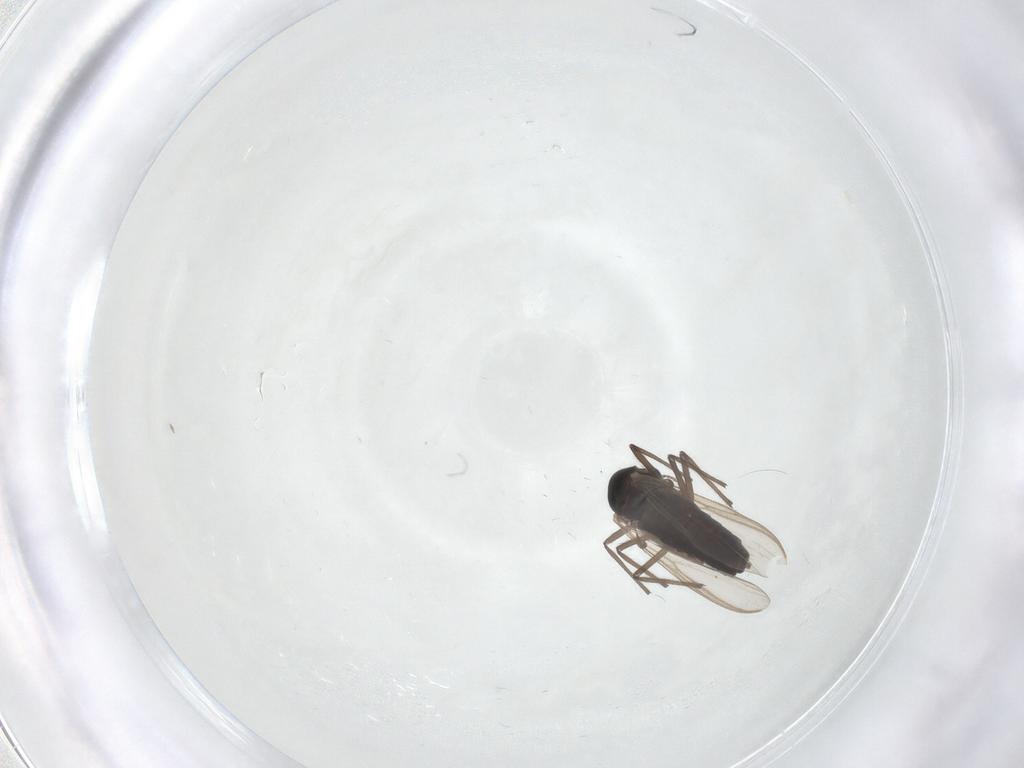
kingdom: Animalia
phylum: Arthropoda
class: Insecta
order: Diptera
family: Chironomidae
